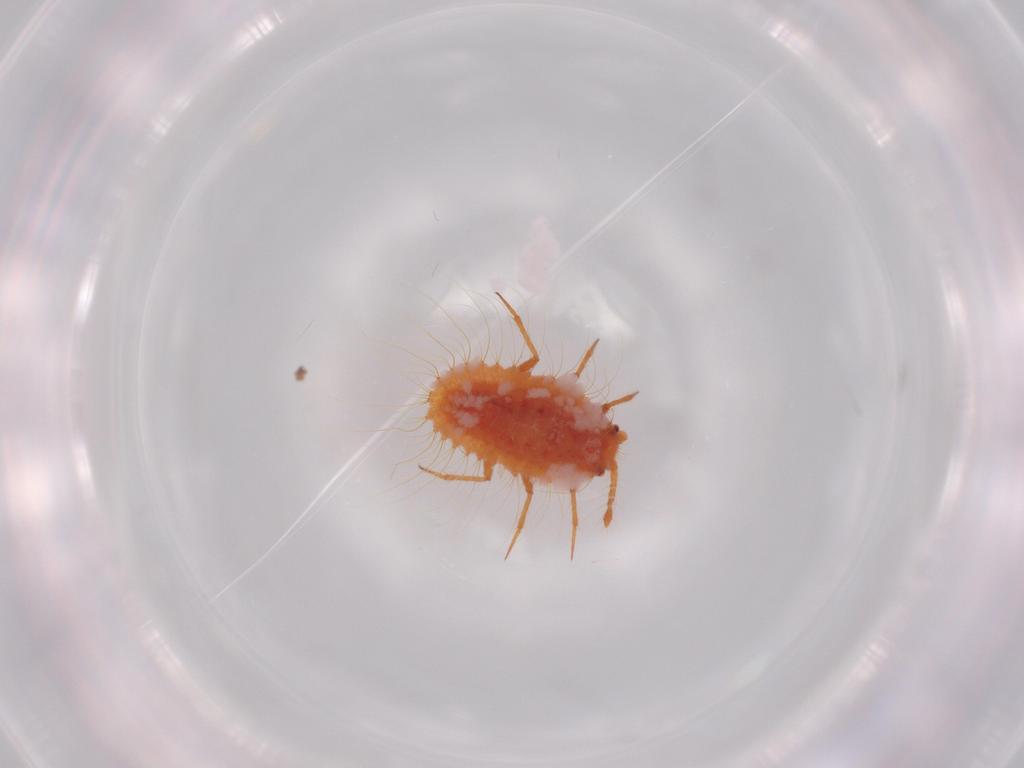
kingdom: Animalia
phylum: Arthropoda
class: Insecta
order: Hemiptera
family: Coccoidea_incertae_sedis
